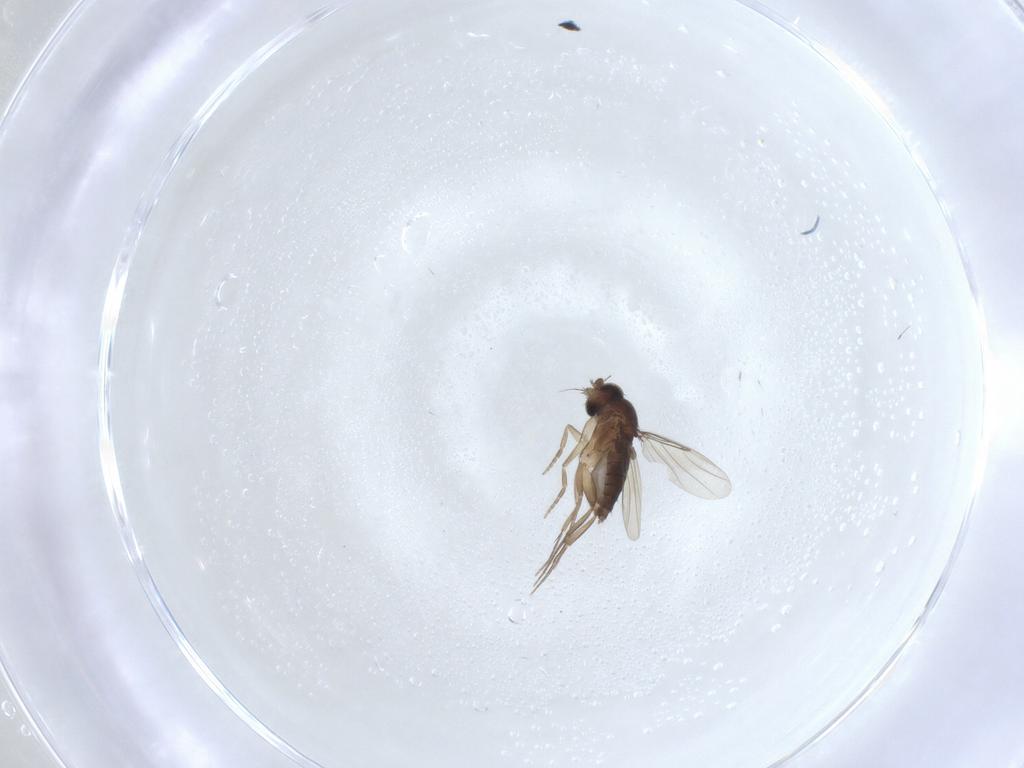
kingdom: Animalia
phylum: Arthropoda
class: Insecta
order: Diptera
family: Phoridae
